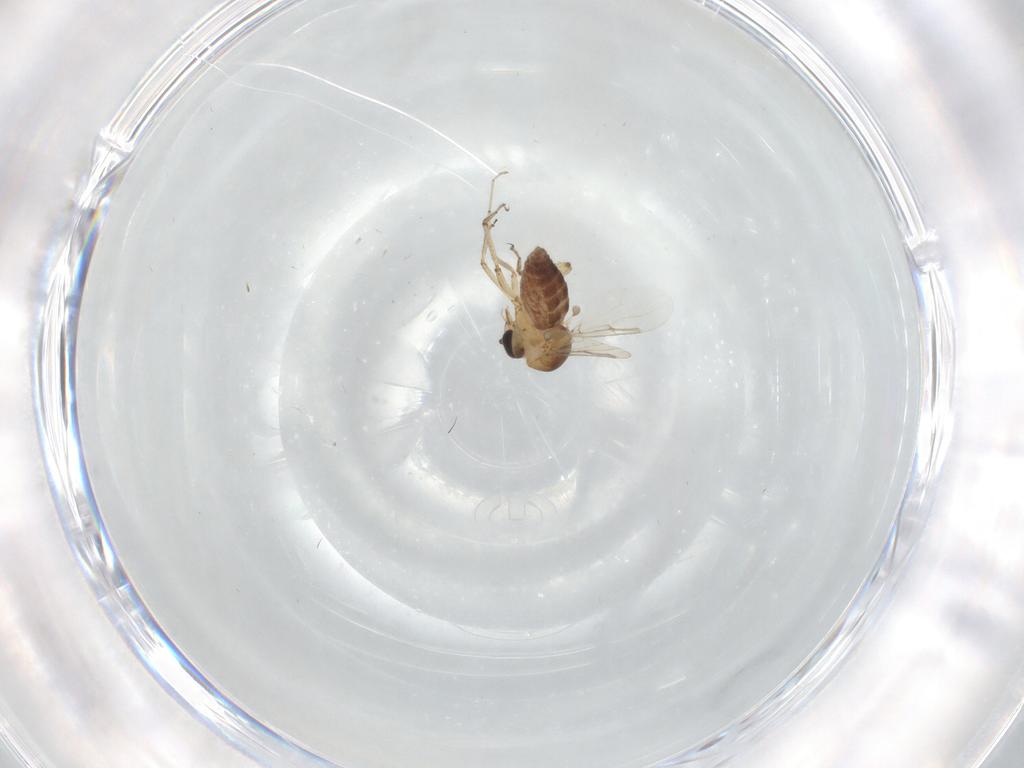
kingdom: Animalia
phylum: Arthropoda
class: Insecta
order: Diptera
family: Ceratopogonidae
